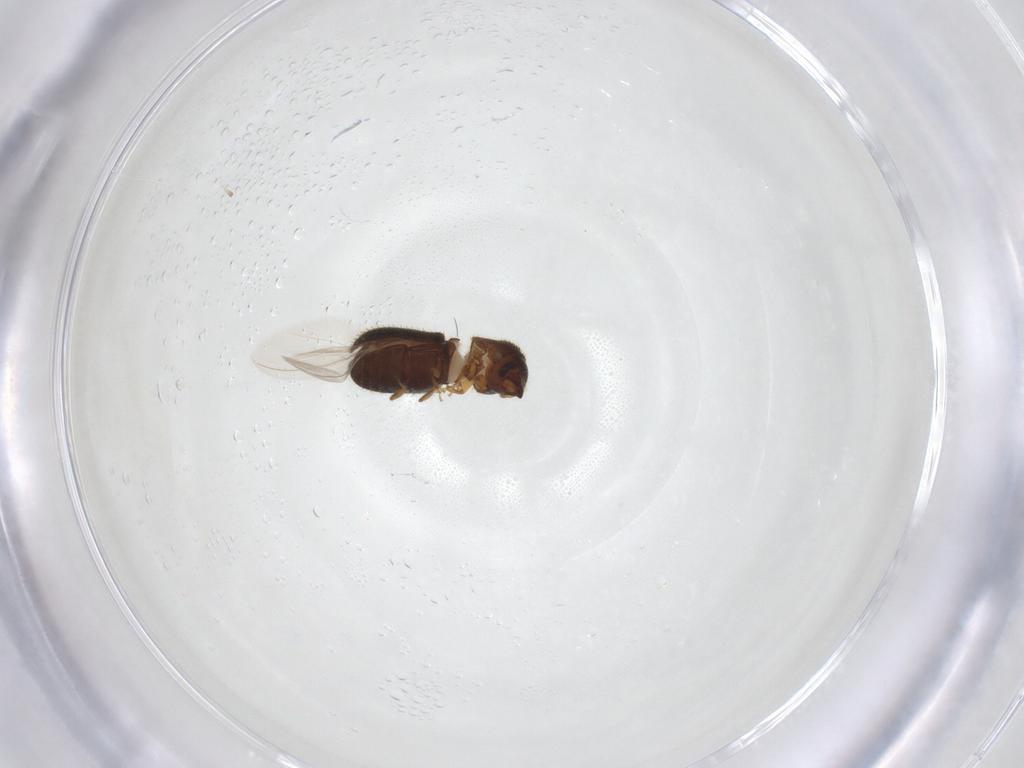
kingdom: Animalia
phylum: Arthropoda
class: Insecta
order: Coleoptera
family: Curculionidae
